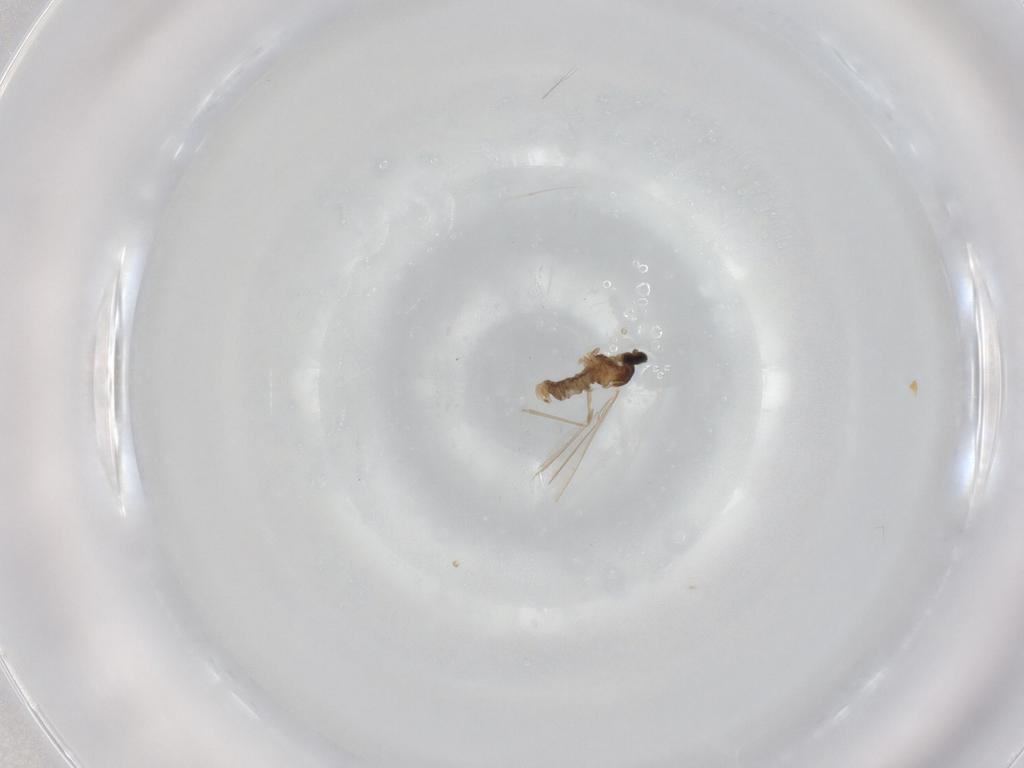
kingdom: Animalia
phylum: Arthropoda
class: Insecta
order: Diptera
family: Cecidomyiidae
